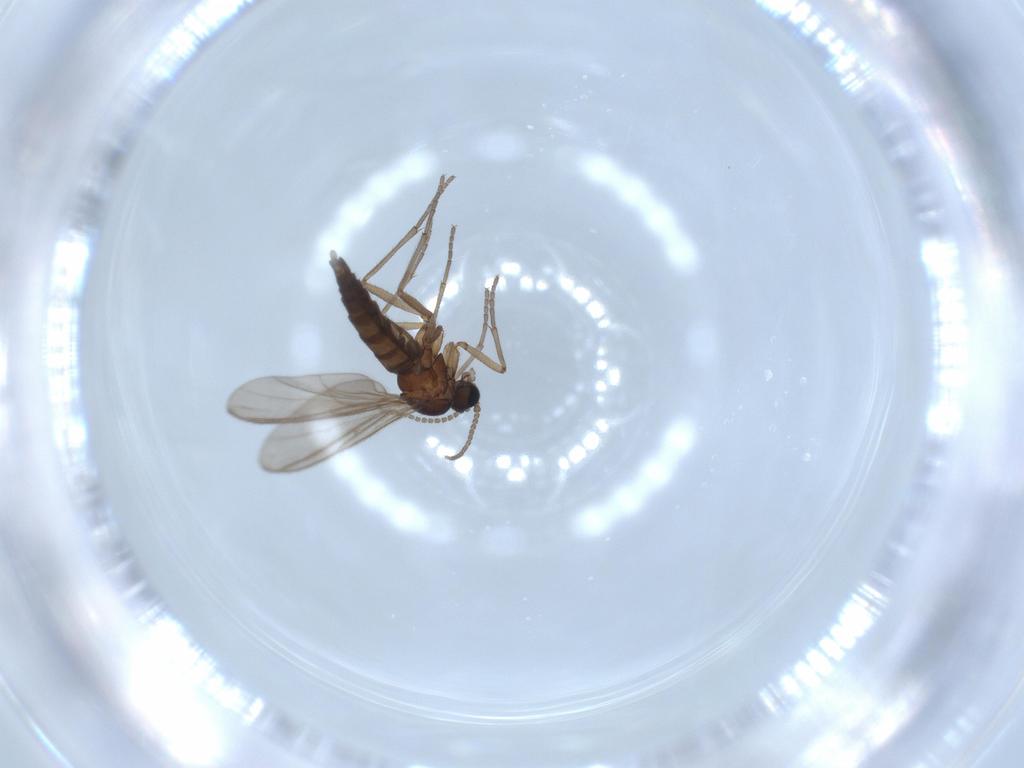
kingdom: Animalia
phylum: Arthropoda
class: Insecta
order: Diptera
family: Sciaridae
